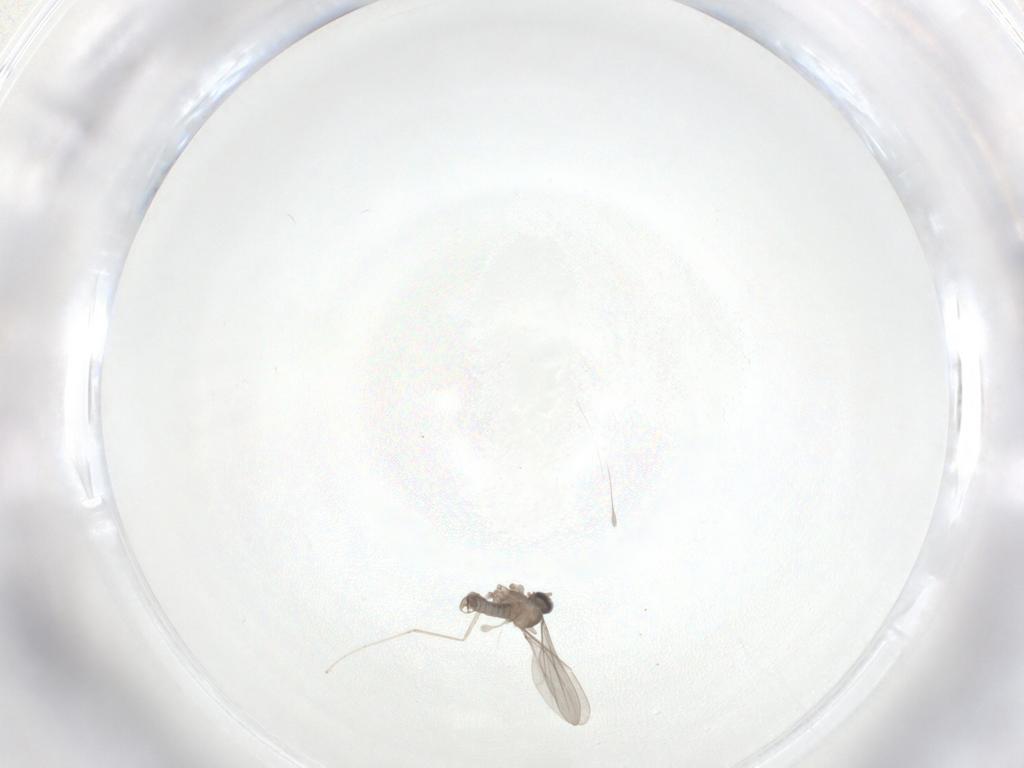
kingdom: Animalia
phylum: Arthropoda
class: Insecta
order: Diptera
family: Cecidomyiidae
